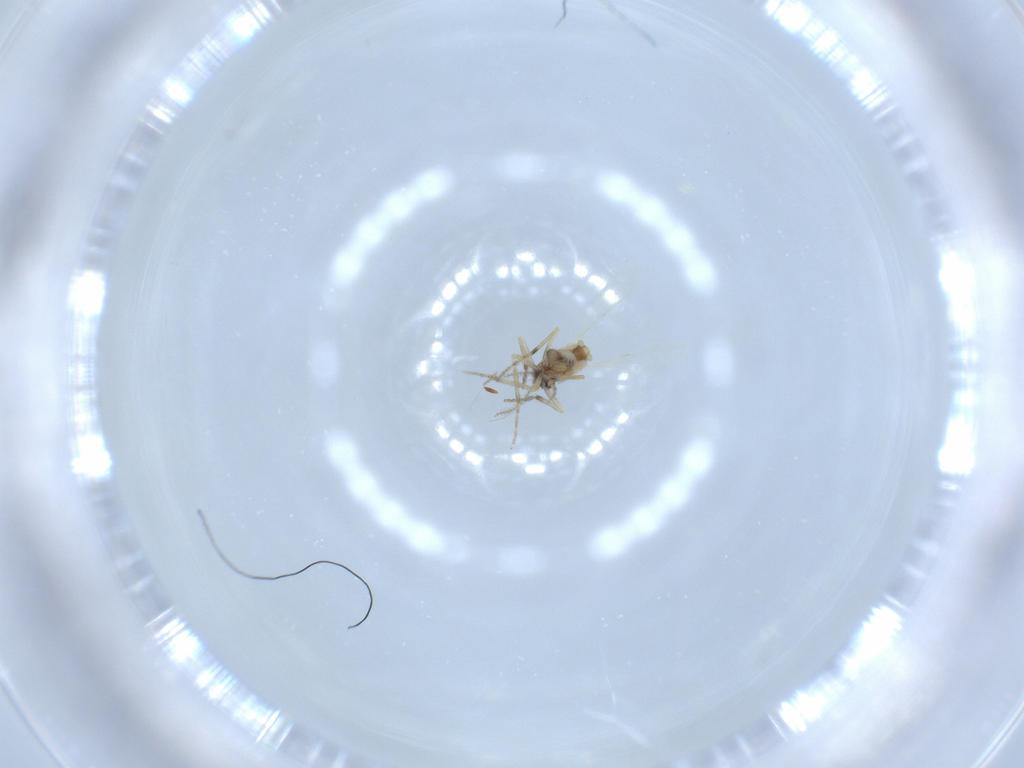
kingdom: Animalia
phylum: Arthropoda
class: Insecta
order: Diptera
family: Ceratopogonidae
